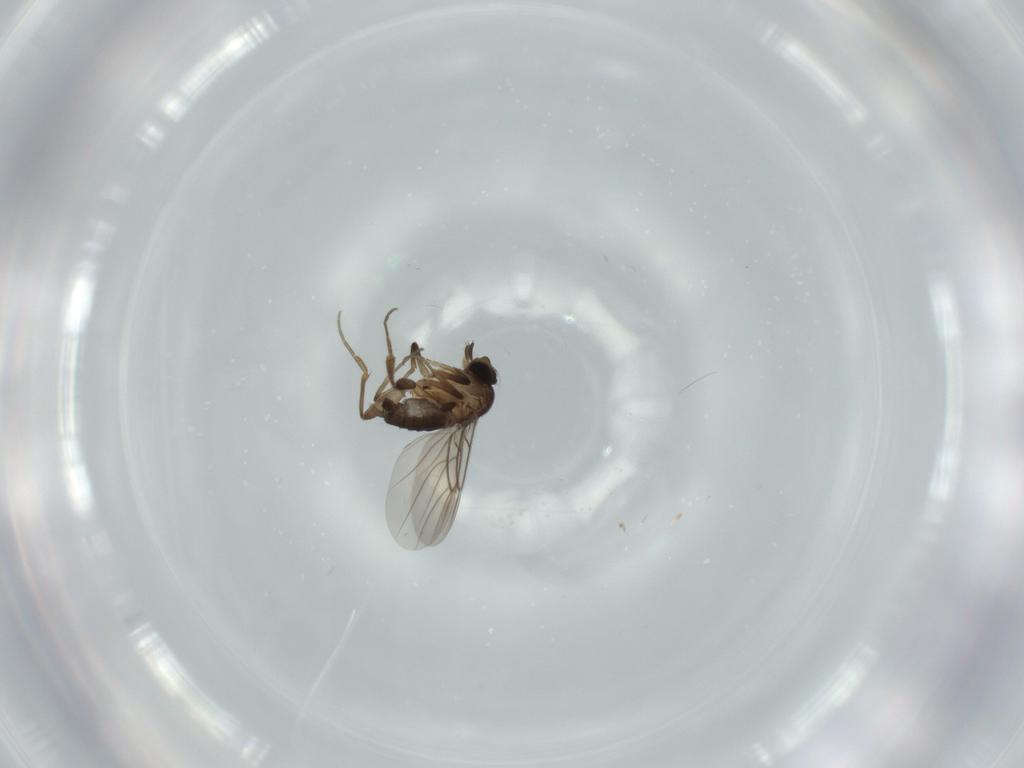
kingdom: Animalia
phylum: Arthropoda
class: Insecta
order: Diptera
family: Phoridae
